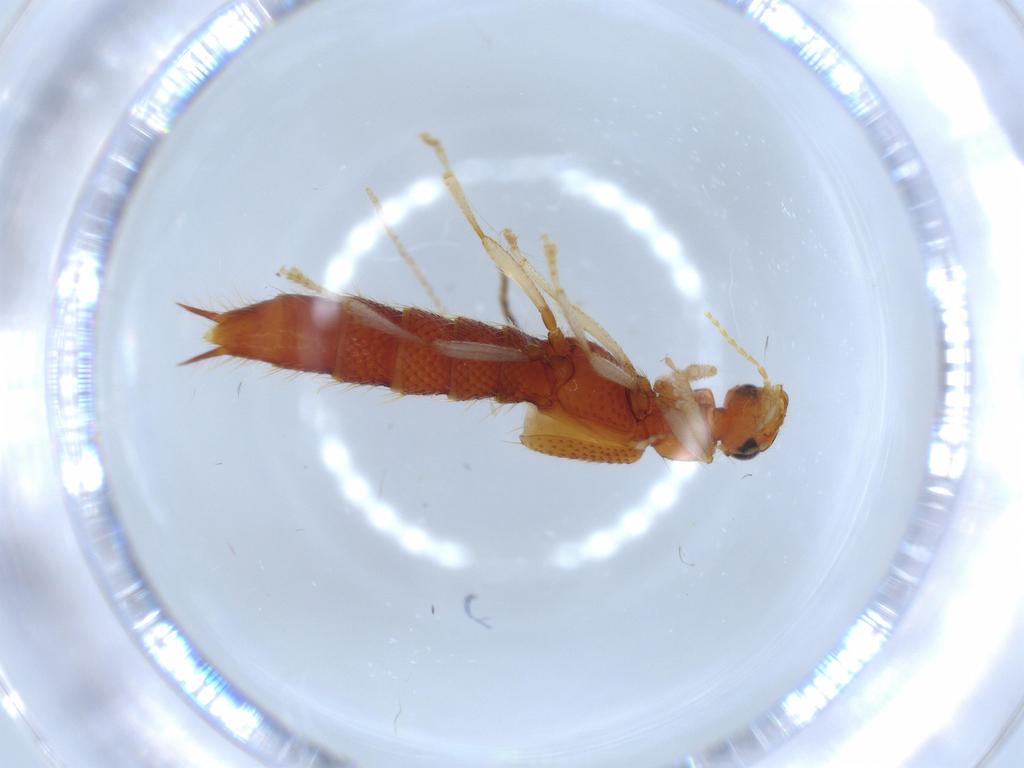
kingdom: Animalia
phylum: Arthropoda
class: Insecta
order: Coleoptera
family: Staphylinidae
